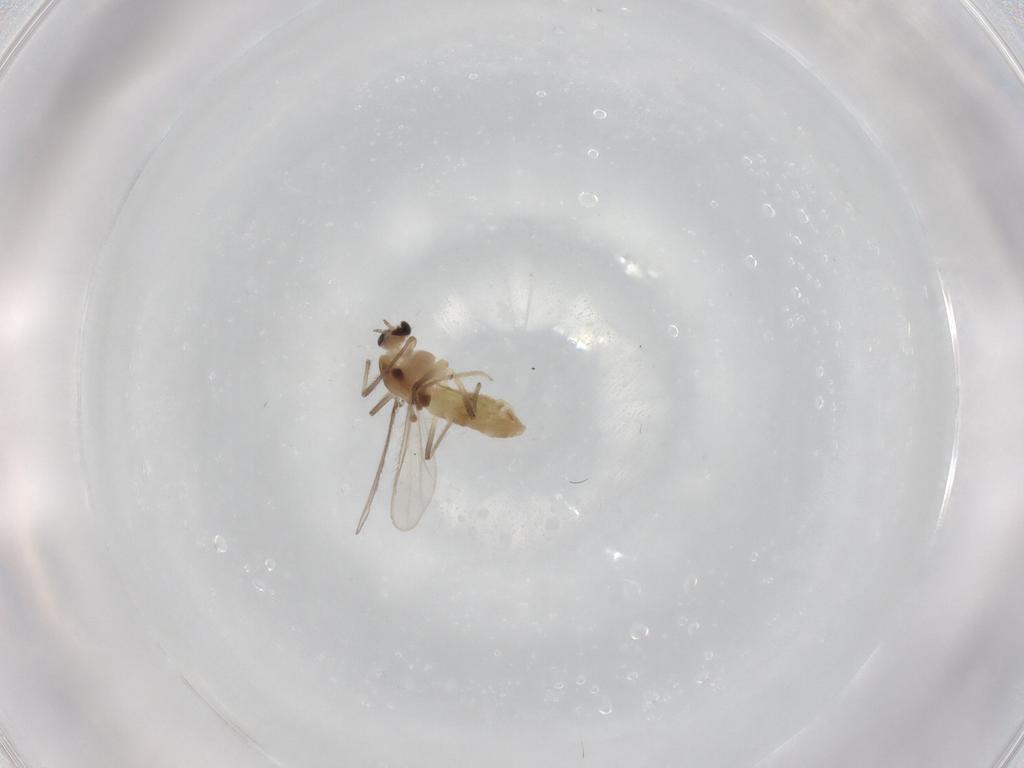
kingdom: Animalia
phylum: Arthropoda
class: Insecta
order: Diptera
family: Chironomidae
